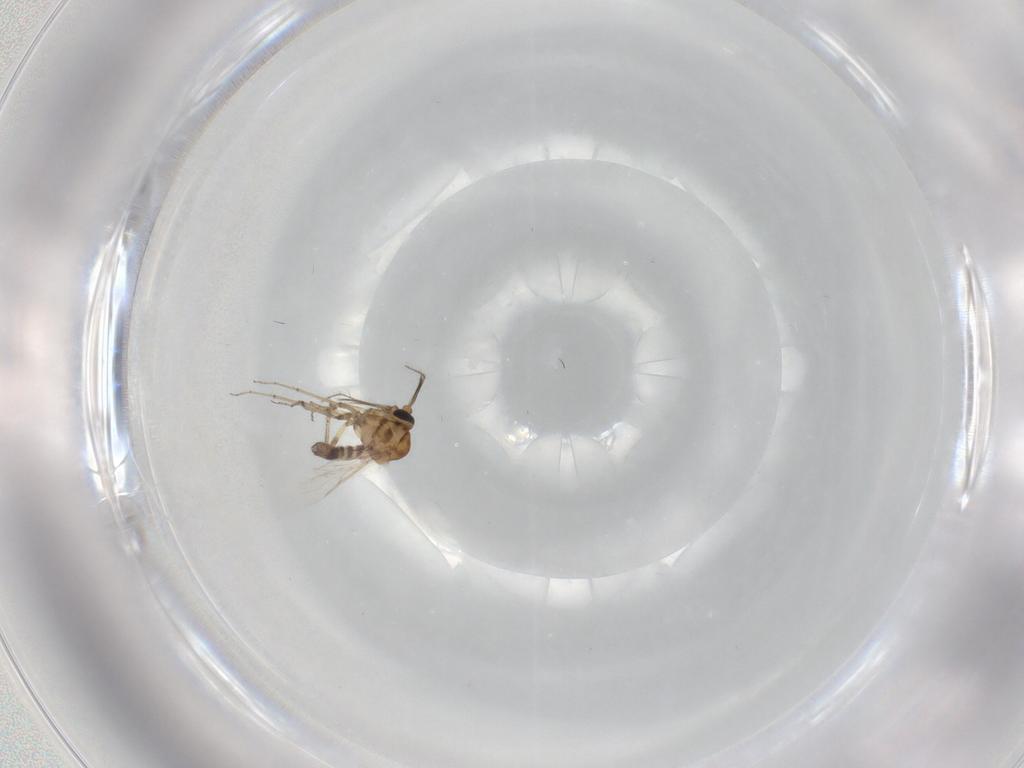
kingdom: Animalia
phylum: Arthropoda
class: Insecta
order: Diptera
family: Ceratopogonidae
